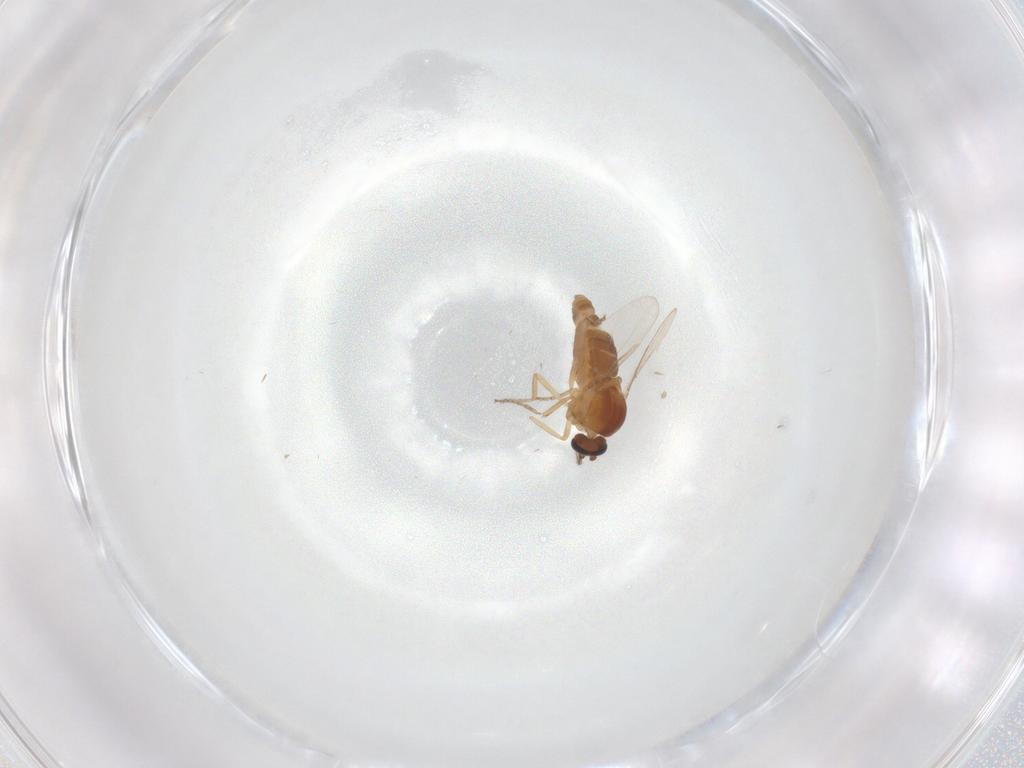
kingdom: Animalia
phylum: Arthropoda
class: Insecta
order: Diptera
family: Ceratopogonidae
